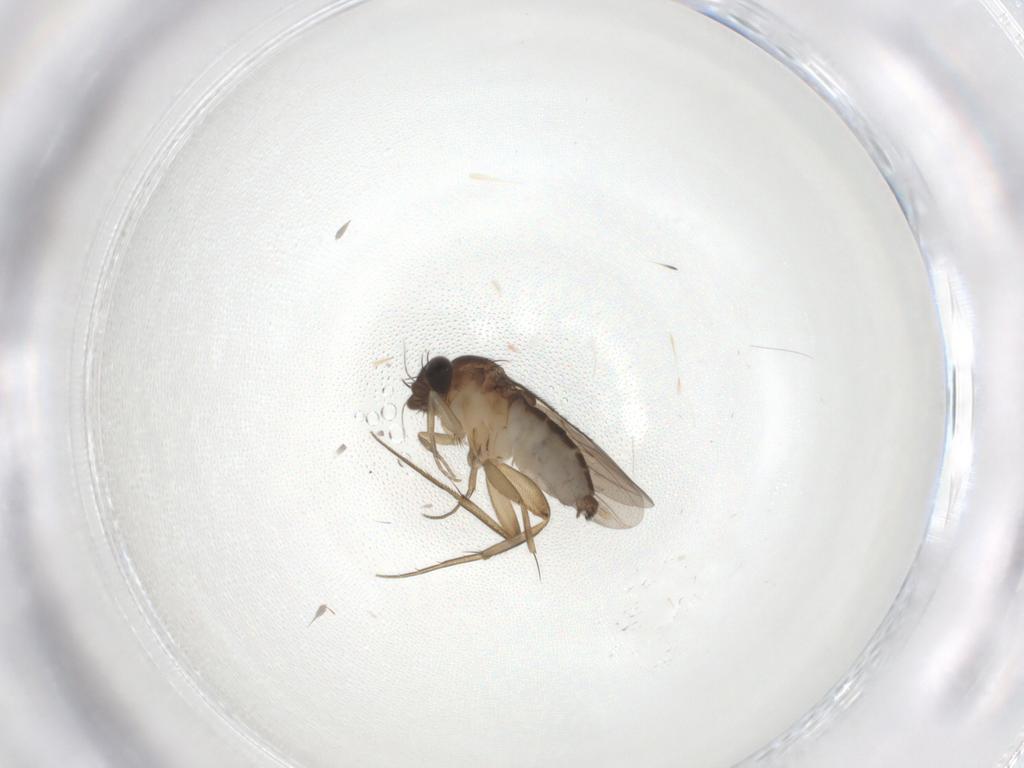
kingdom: Animalia
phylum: Arthropoda
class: Insecta
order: Diptera
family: Phoridae
